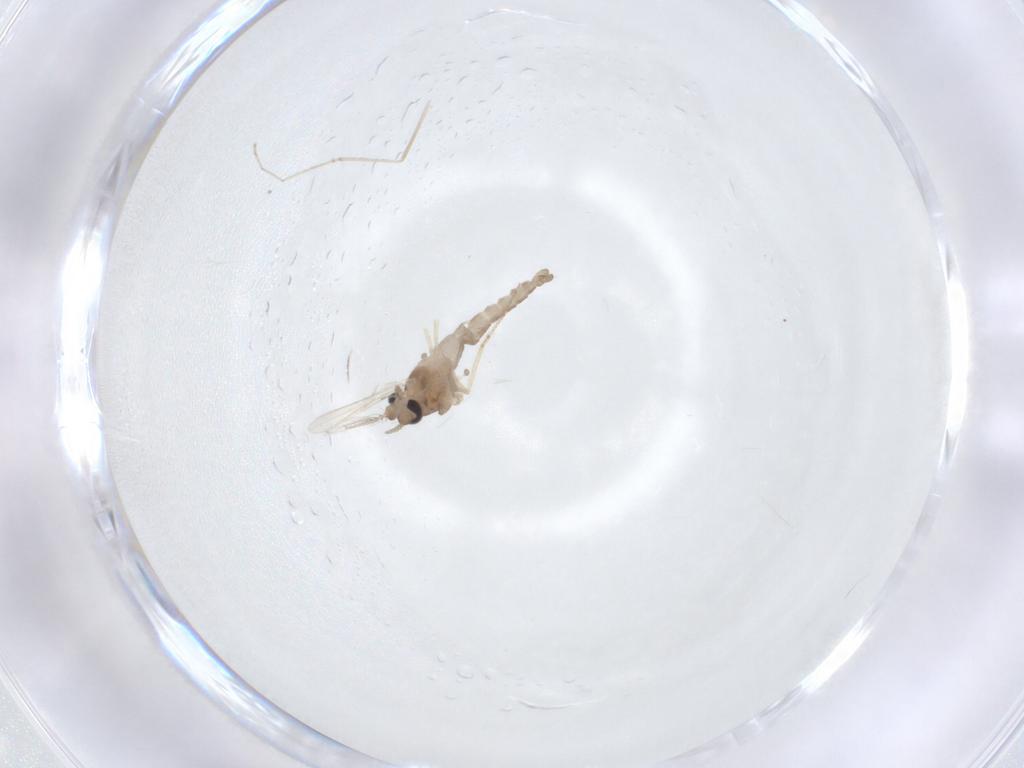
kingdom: Animalia
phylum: Arthropoda
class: Insecta
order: Diptera
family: Ceratopogonidae
